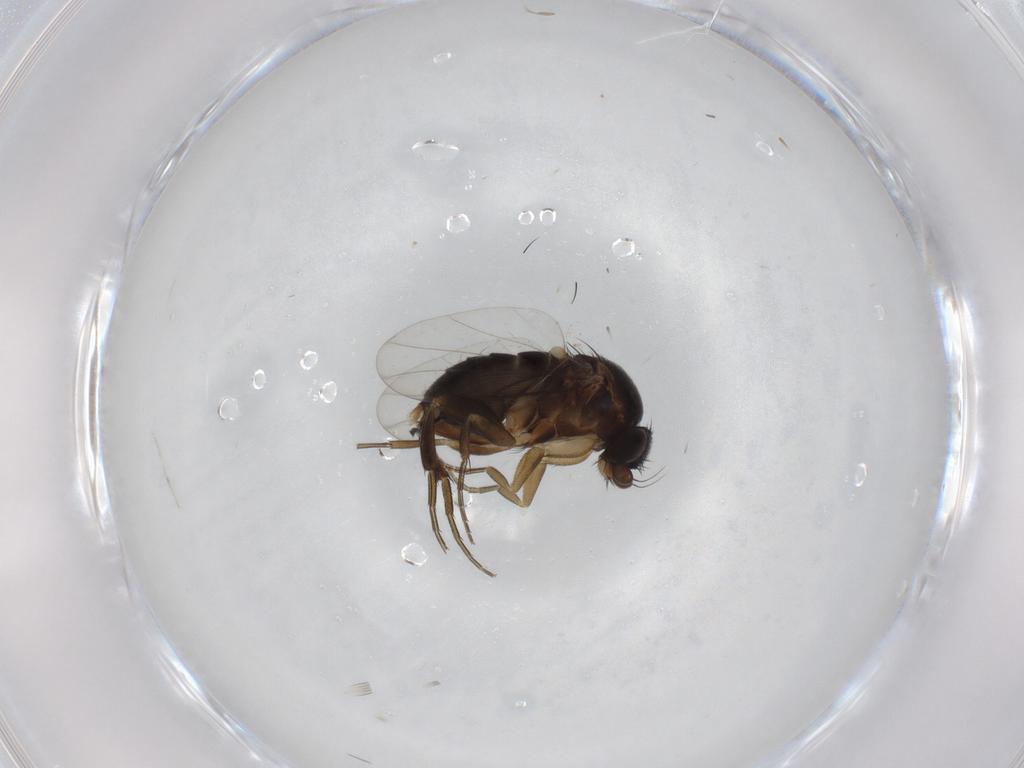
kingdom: Animalia
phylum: Arthropoda
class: Insecta
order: Diptera
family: Phoridae
